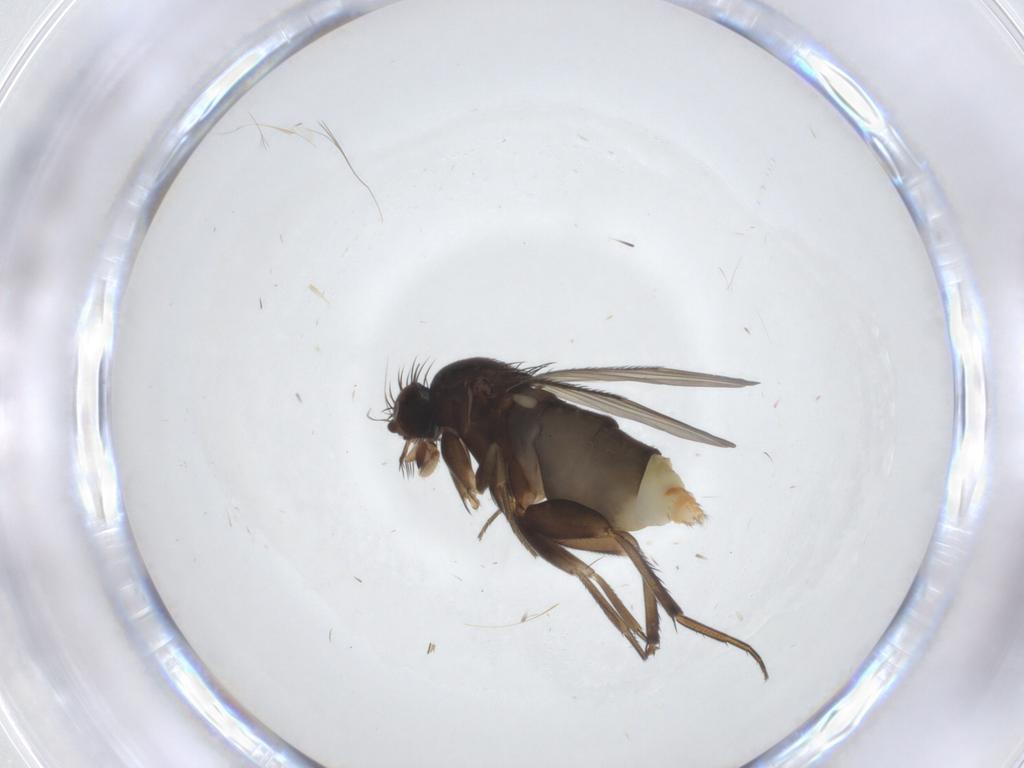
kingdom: Animalia
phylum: Arthropoda
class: Insecta
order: Diptera
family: Phoridae
